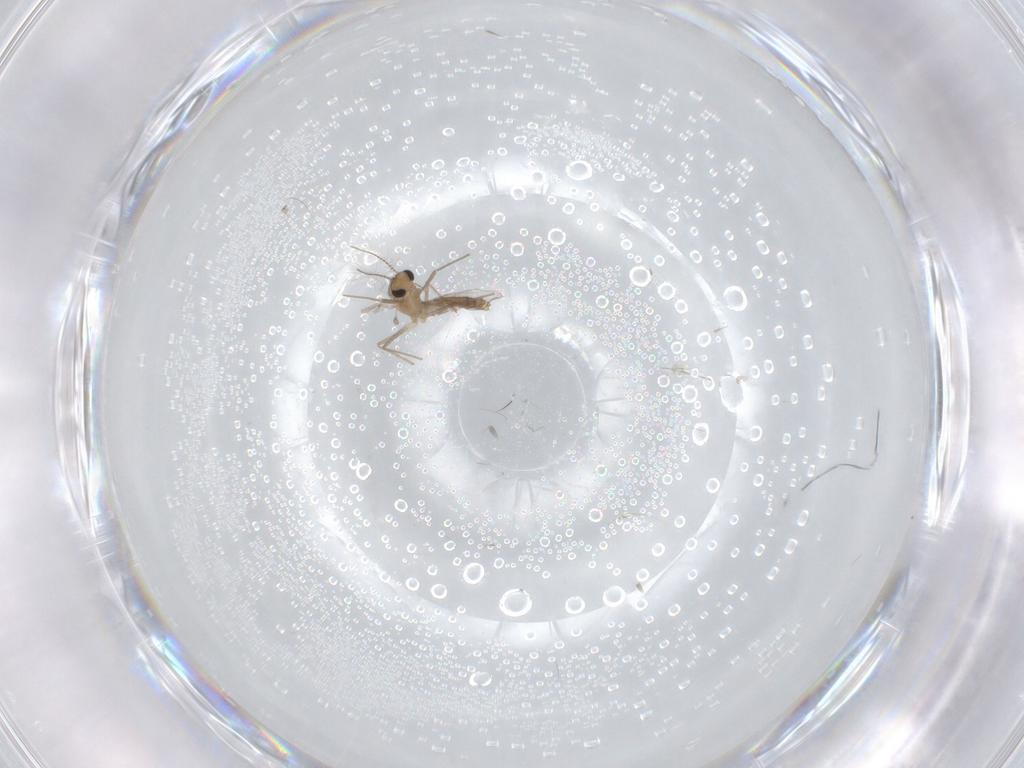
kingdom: Animalia
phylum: Arthropoda
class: Insecta
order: Diptera
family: Chironomidae
